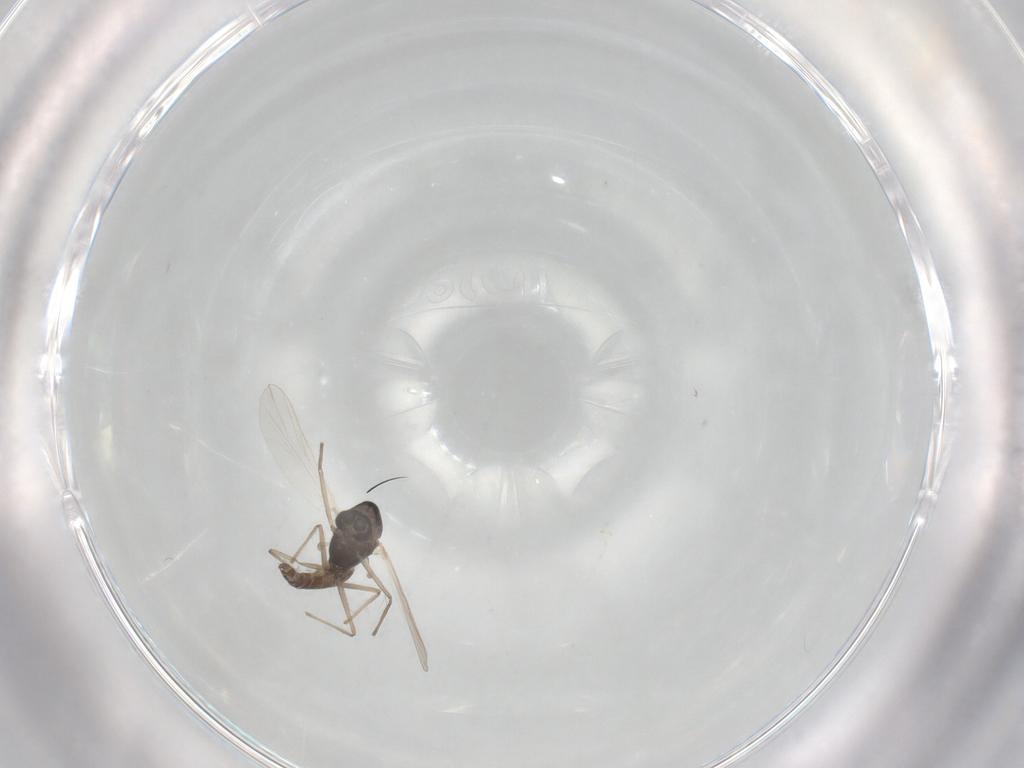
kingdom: Animalia
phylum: Arthropoda
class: Insecta
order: Diptera
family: Chironomidae
